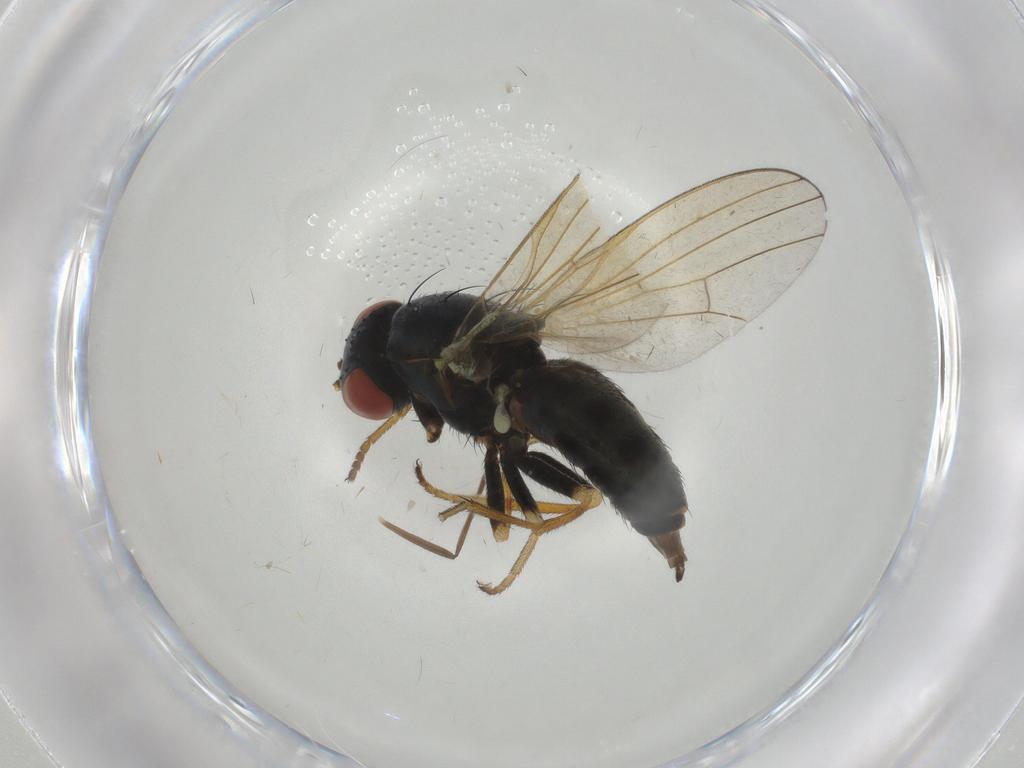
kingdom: Animalia
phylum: Arthropoda
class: Insecta
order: Diptera
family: Chamaemyiidae
